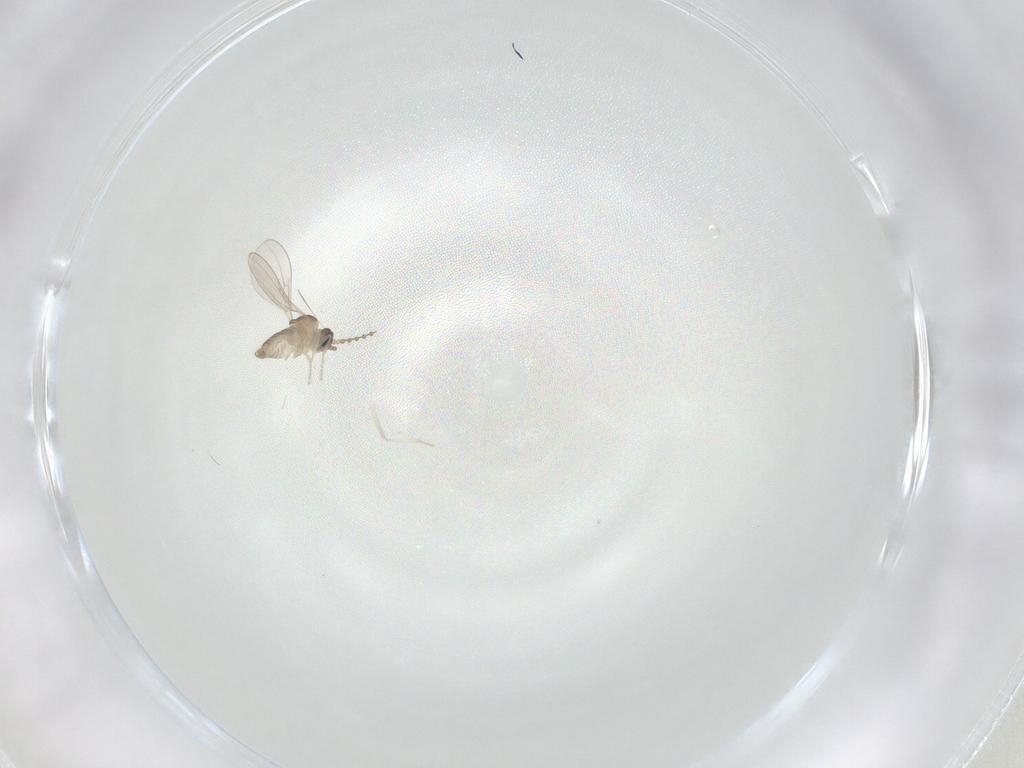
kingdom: Animalia
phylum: Arthropoda
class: Insecta
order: Diptera
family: Cecidomyiidae
